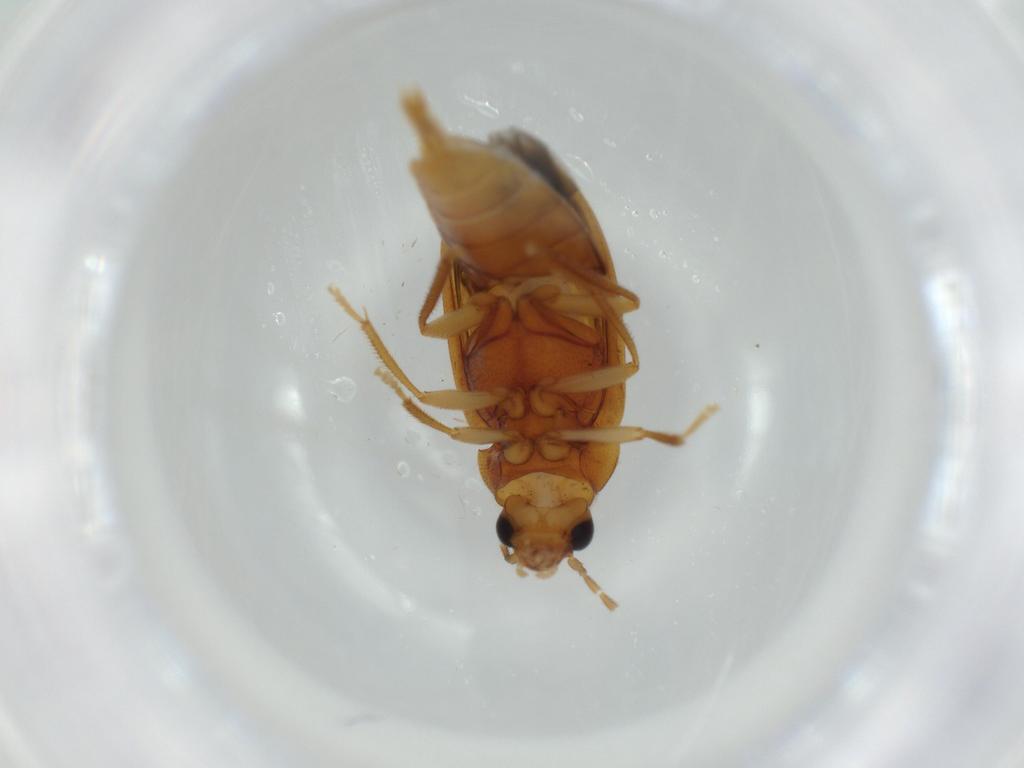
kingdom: Animalia
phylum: Arthropoda
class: Insecta
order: Coleoptera
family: Ptilodactylidae
